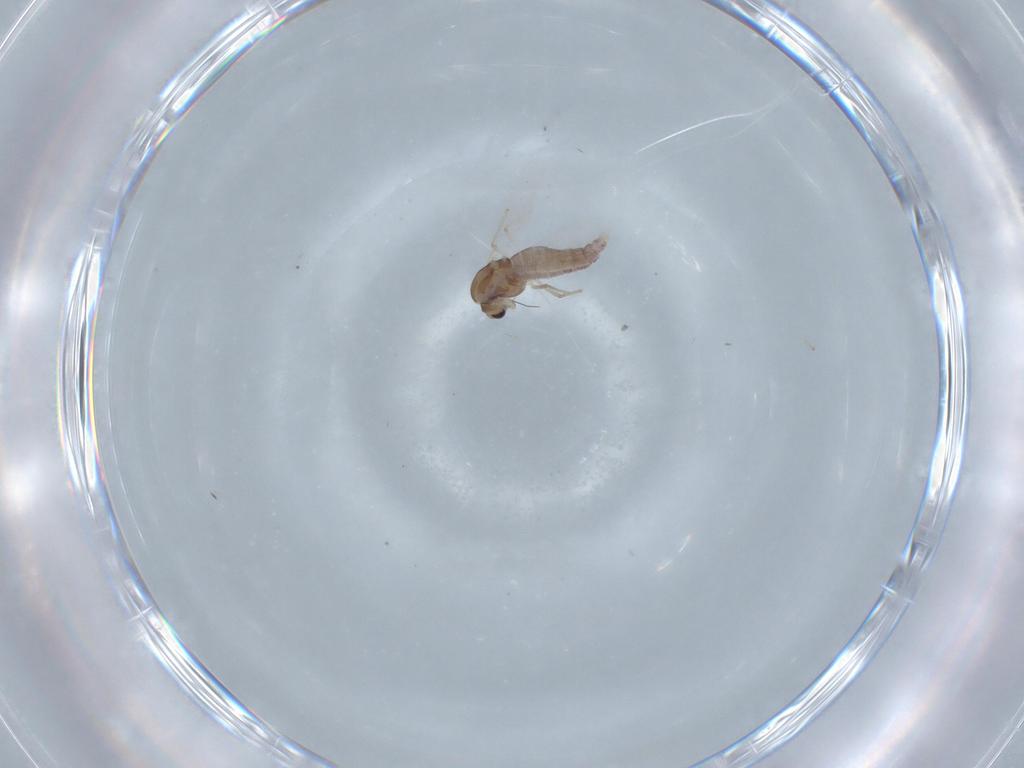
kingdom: Animalia
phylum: Arthropoda
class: Insecta
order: Diptera
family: Chironomidae
